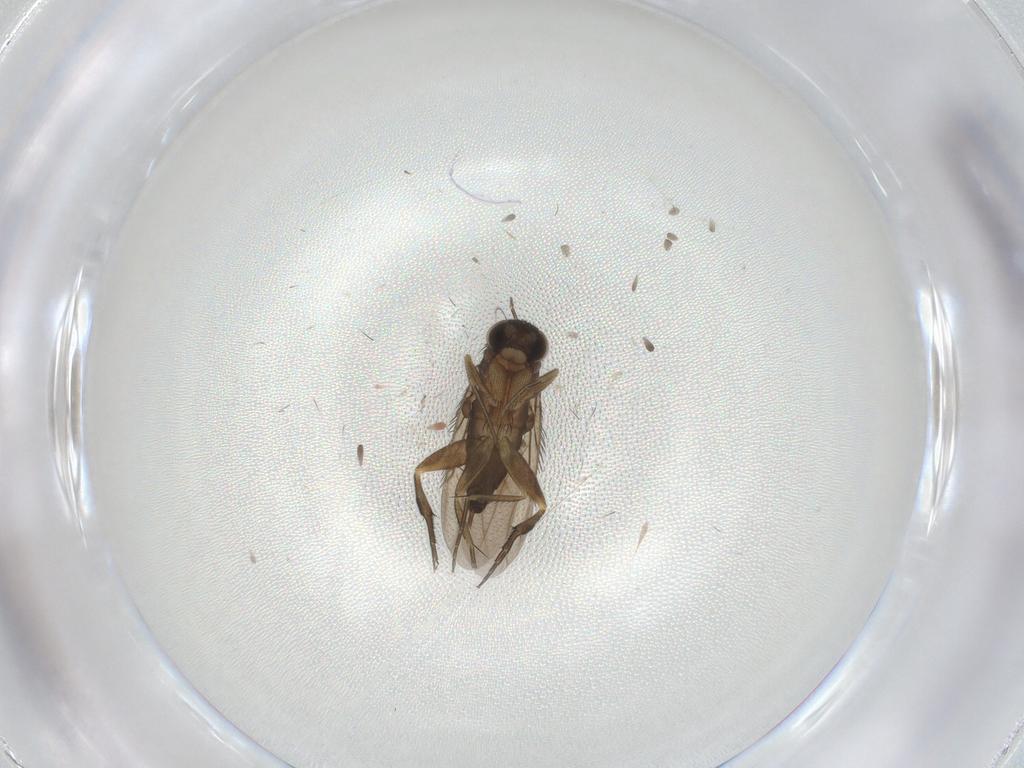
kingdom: Animalia
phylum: Arthropoda
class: Insecta
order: Diptera
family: Phoridae
